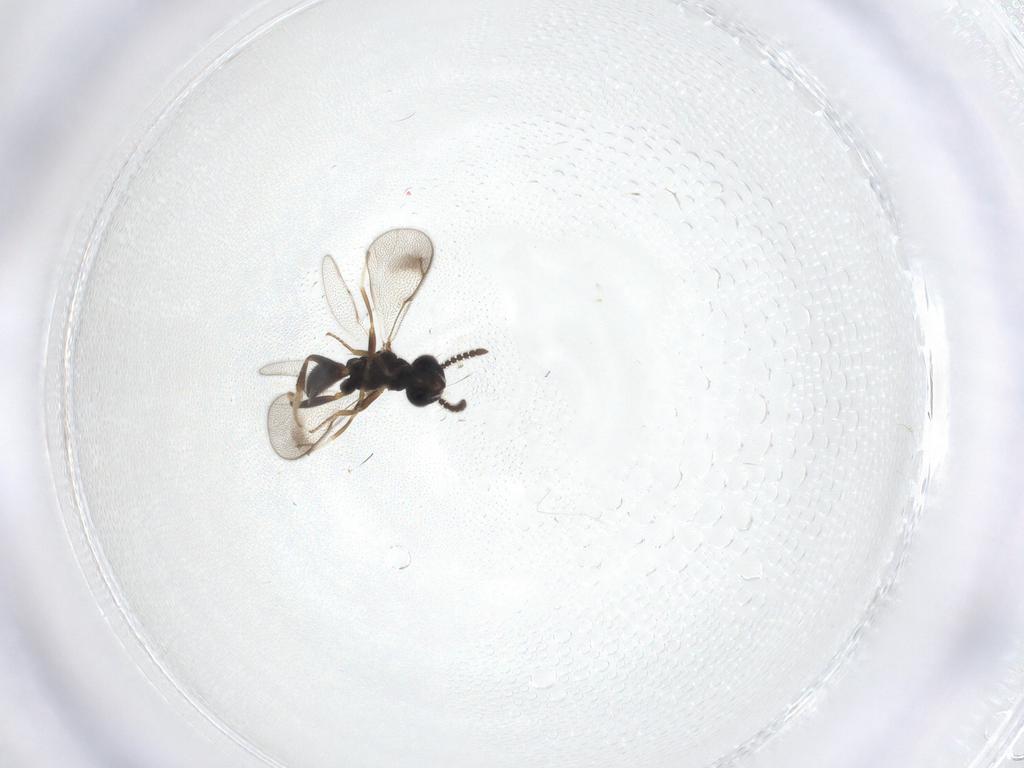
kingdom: Animalia
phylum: Arthropoda
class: Insecta
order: Hymenoptera
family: Cleonyminae
